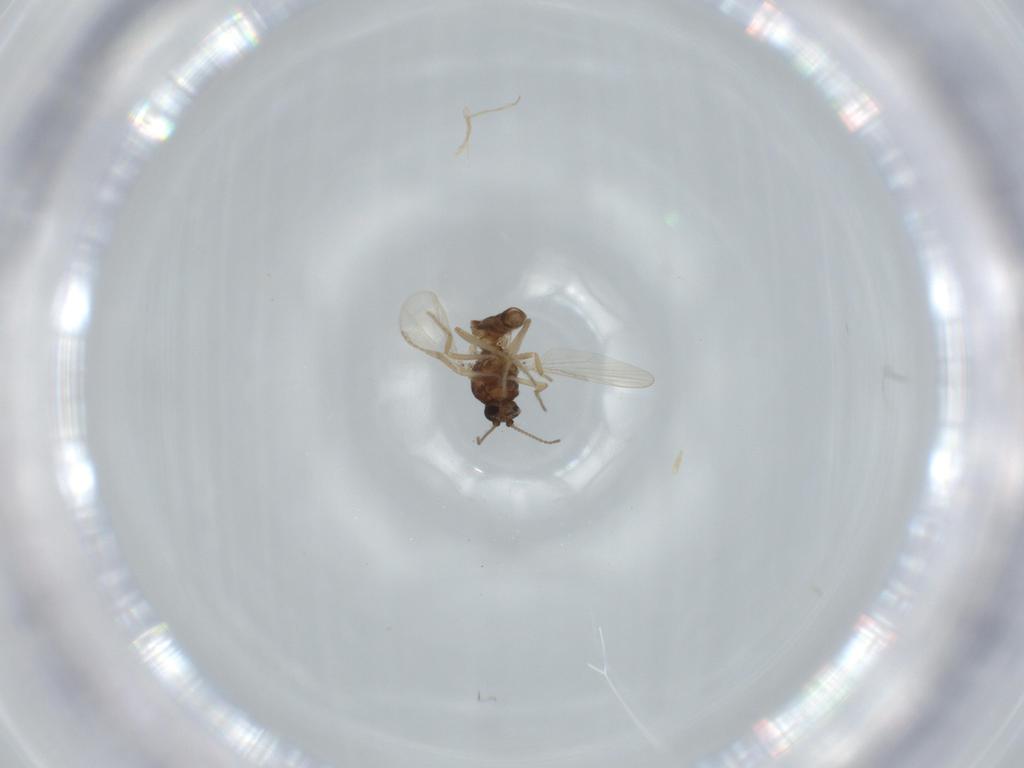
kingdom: Animalia
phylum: Arthropoda
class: Insecta
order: Diptera
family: Ceratopogonidae
